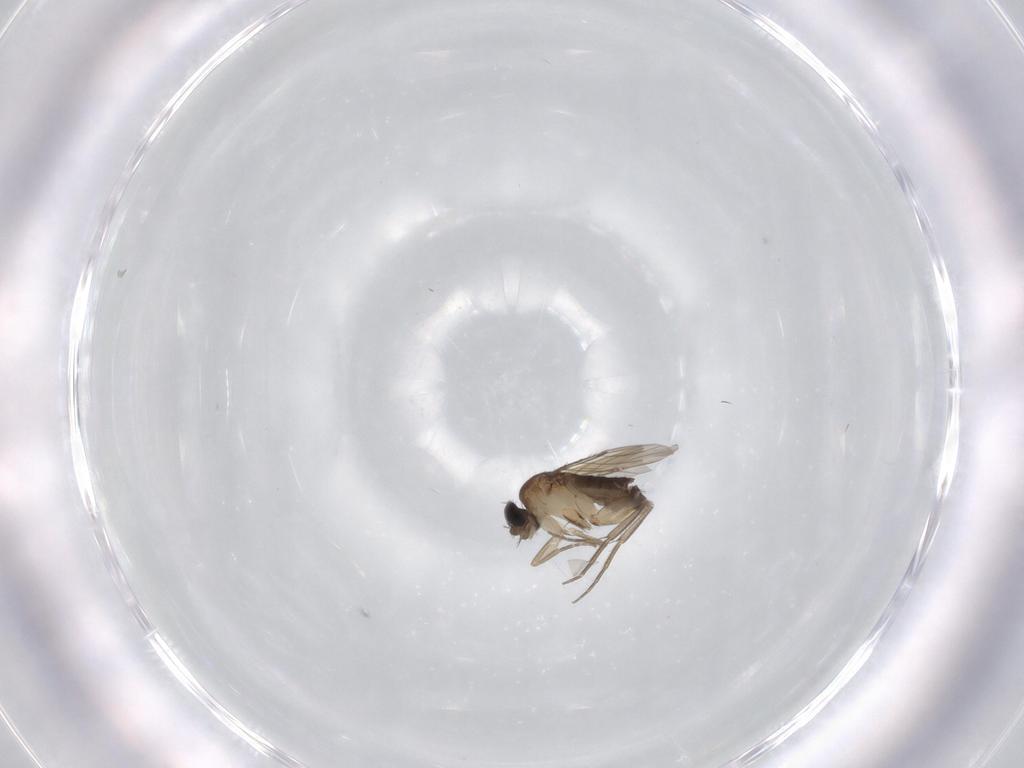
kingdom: Animalia
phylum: Arthropoda
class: Insecta
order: Diptera
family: Phoridae
